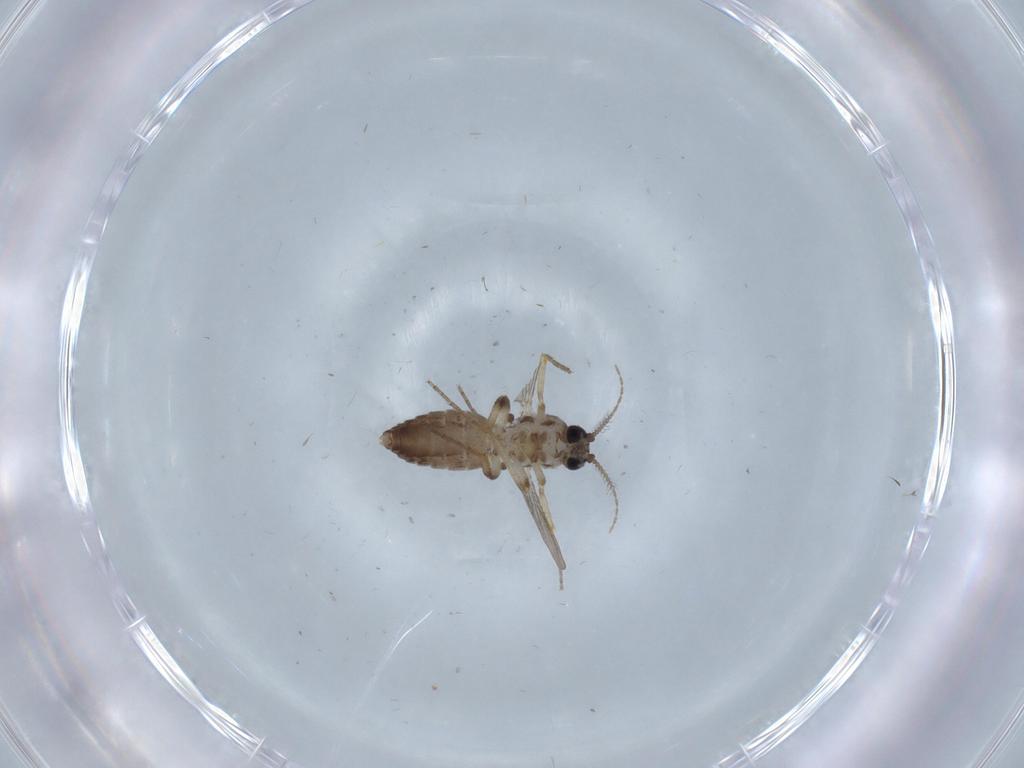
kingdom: Animalia
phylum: Arthropoda
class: Insecta
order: Diptera
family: Ceratopogonidae
